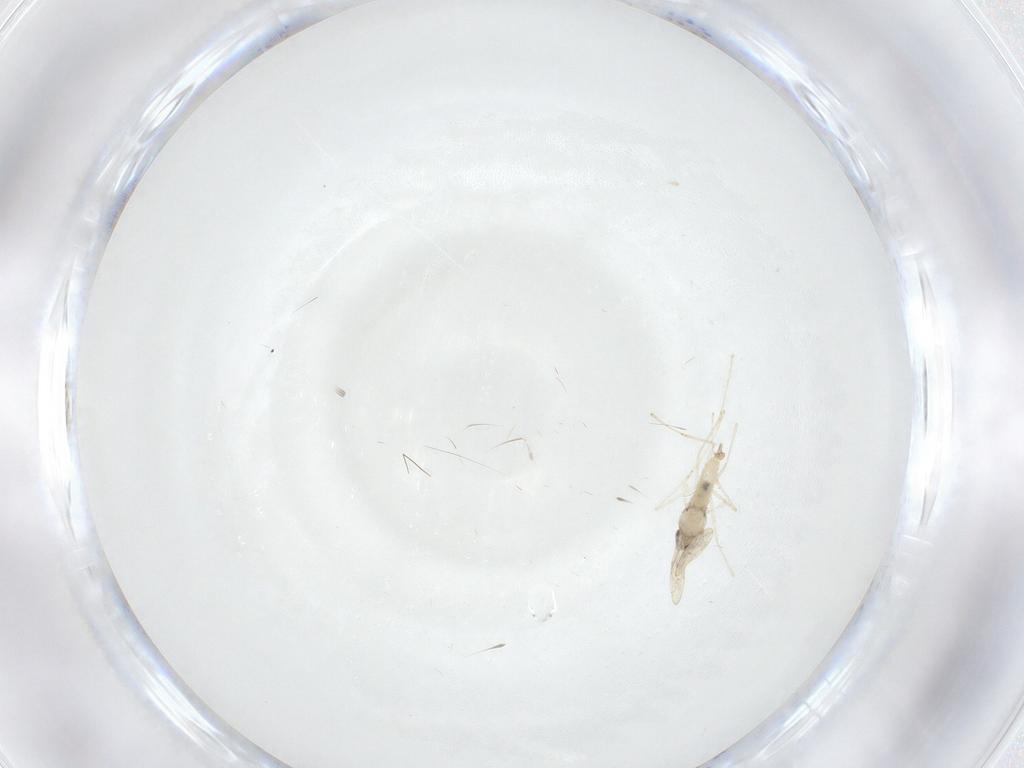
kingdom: Animalia
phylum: Arthropoda
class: Insecta
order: Diptera
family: Cecidomyiidae
